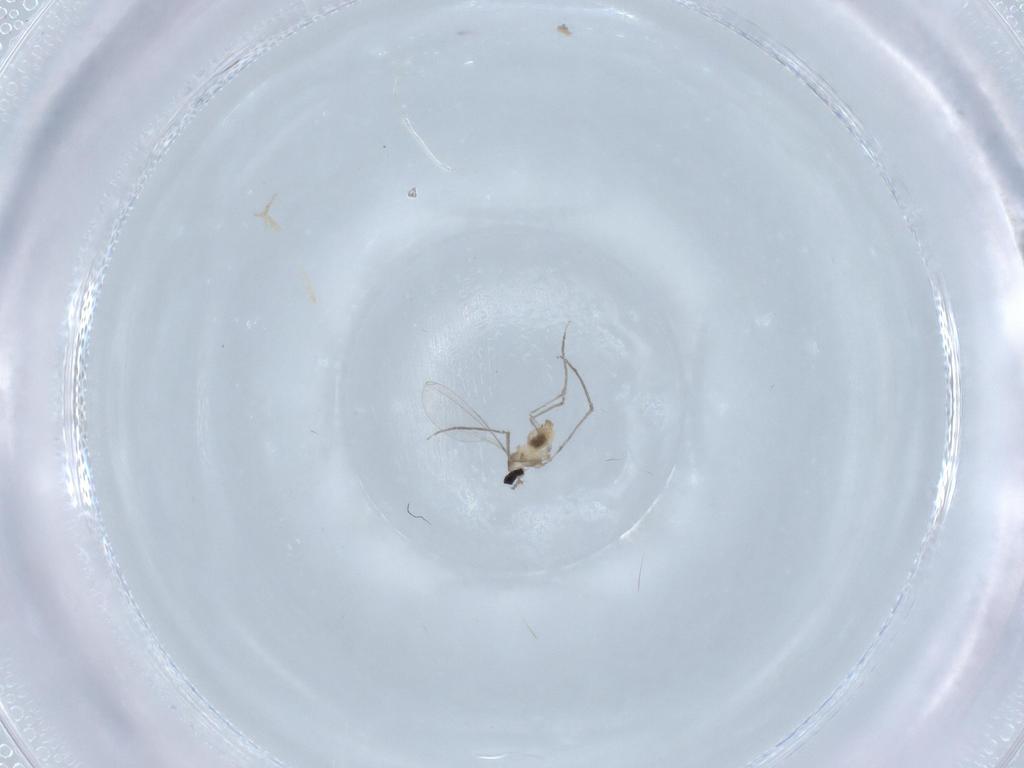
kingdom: Animalia
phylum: Arthropoda
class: Insecta
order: Diptera
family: Cecidomyiidae
